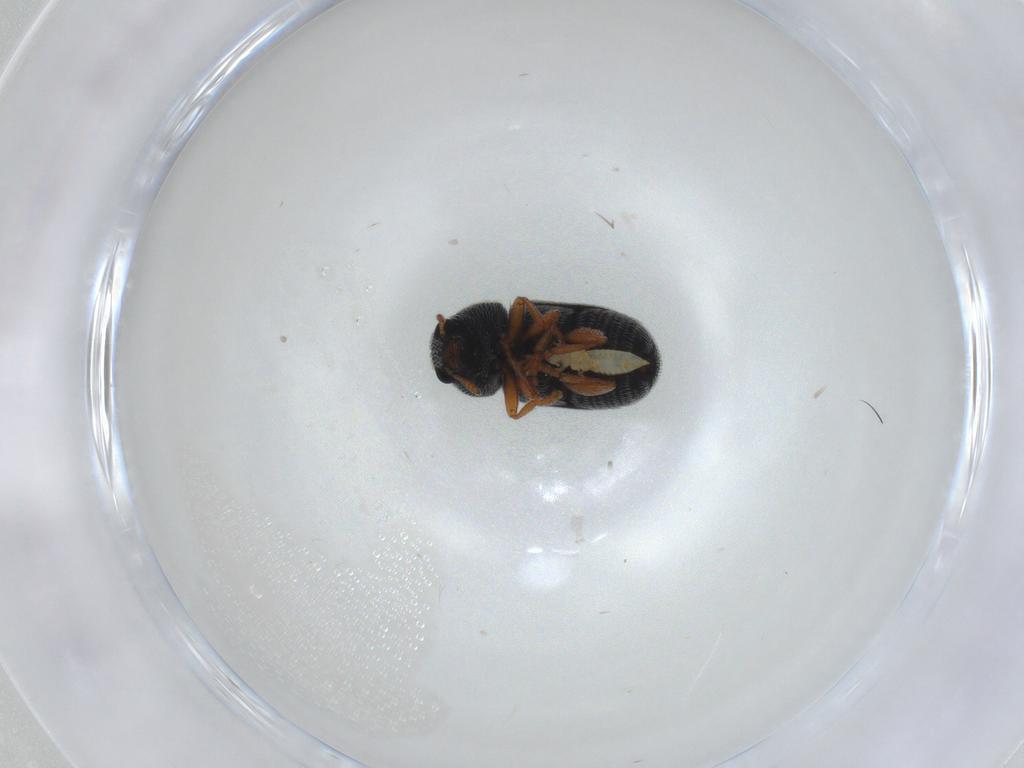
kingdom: Animalia
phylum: Arthropoda
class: Insecta
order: Coleoptera
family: Anthribidae
